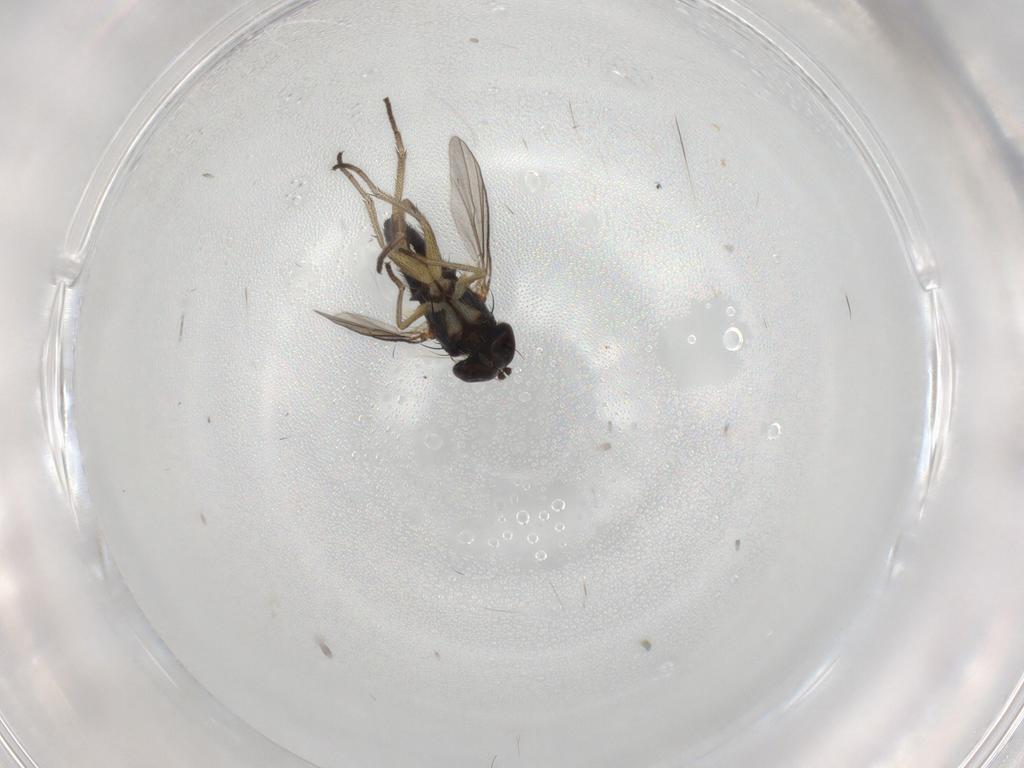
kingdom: Animalia
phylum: Arthropoda
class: Insecta
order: Diptera
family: Dolichopodidae
